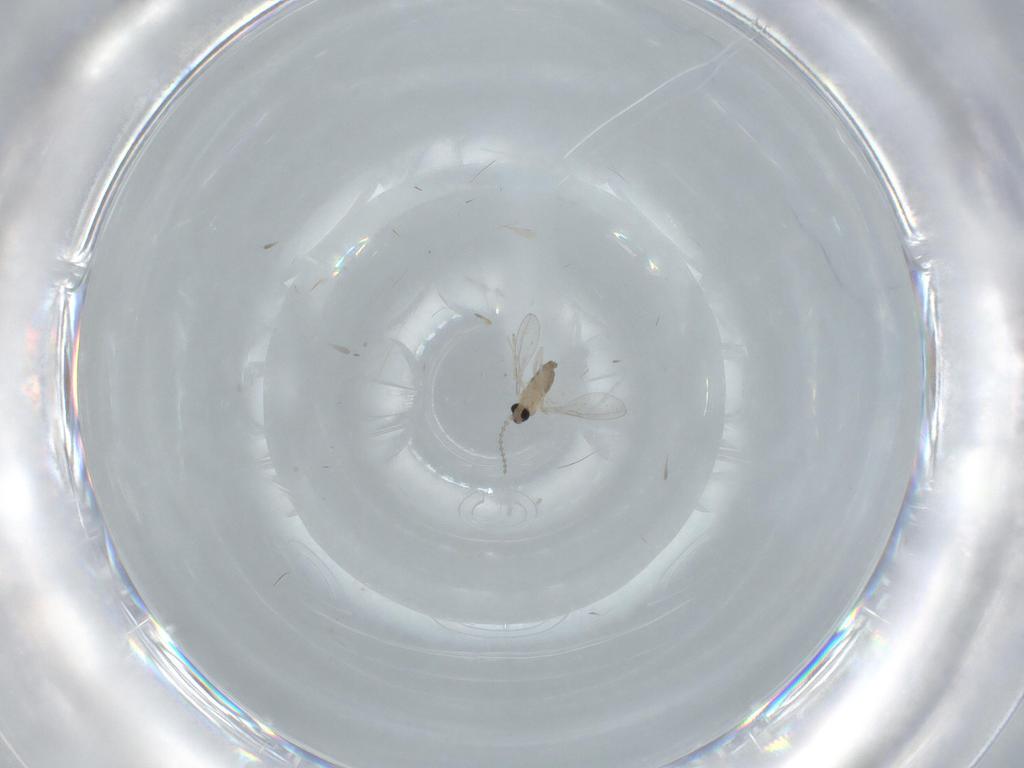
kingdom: Animalia
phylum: Arthropoda
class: Insecta
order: Diptera
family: Cecidomyiidae
